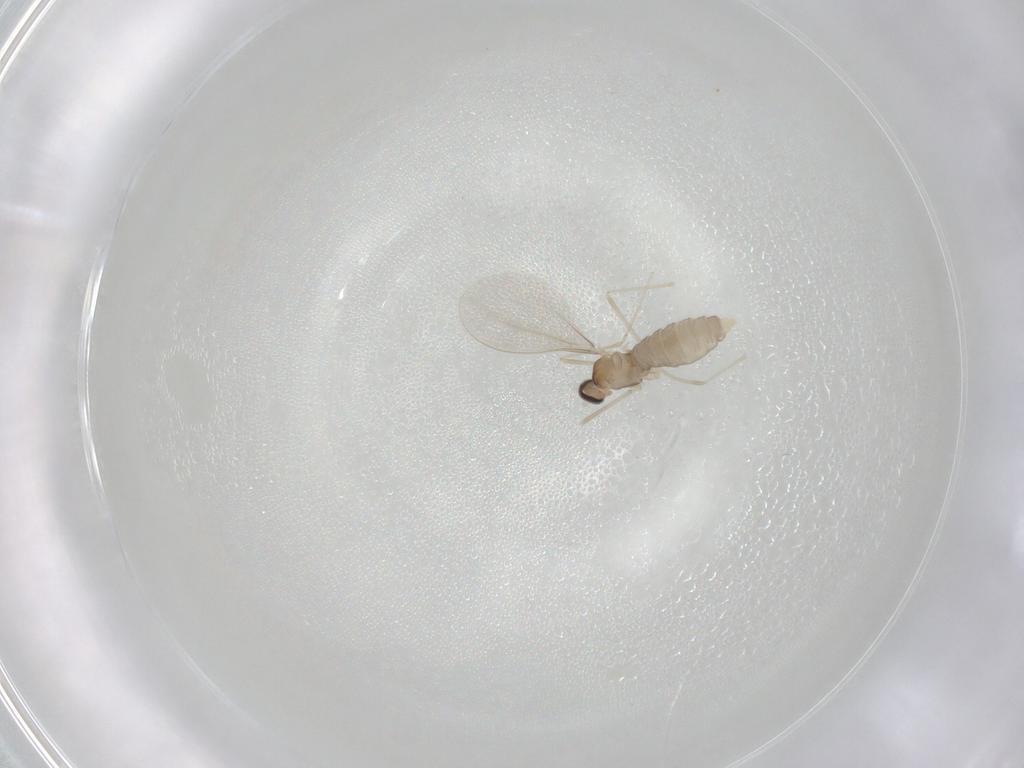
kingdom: Animalia
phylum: Arthropoda
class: Insecta
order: Diptera
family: Cecidomyiidae
